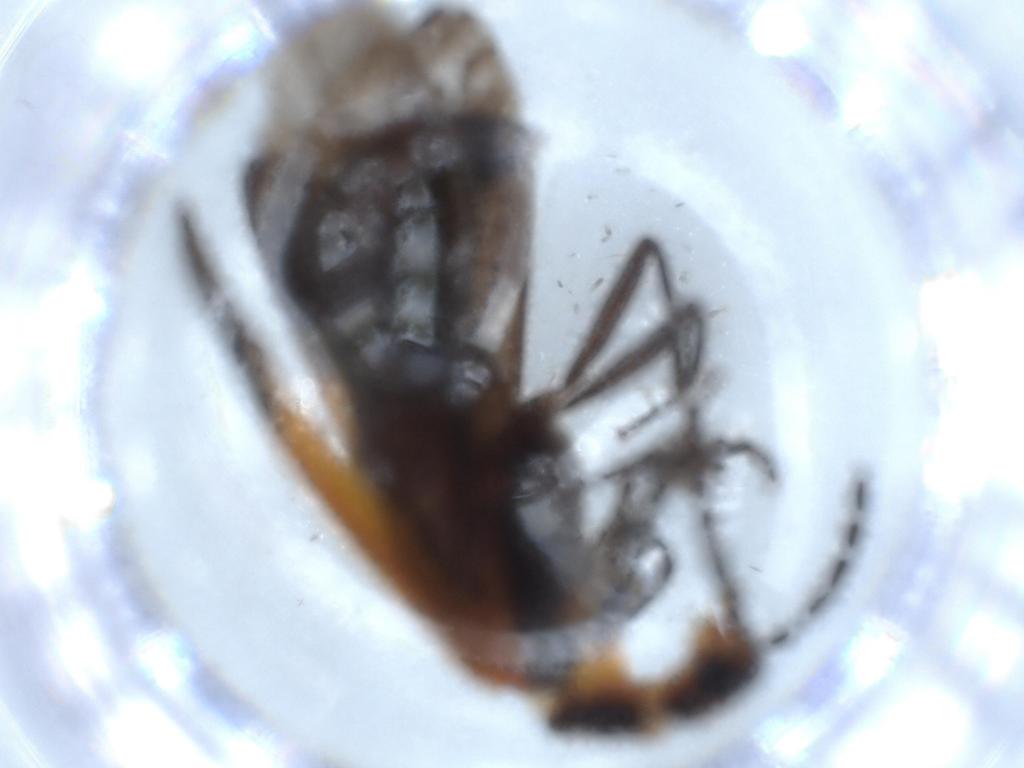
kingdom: Animalia
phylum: Arthropoda
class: Insecta
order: Coleoptera
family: Cleridae
